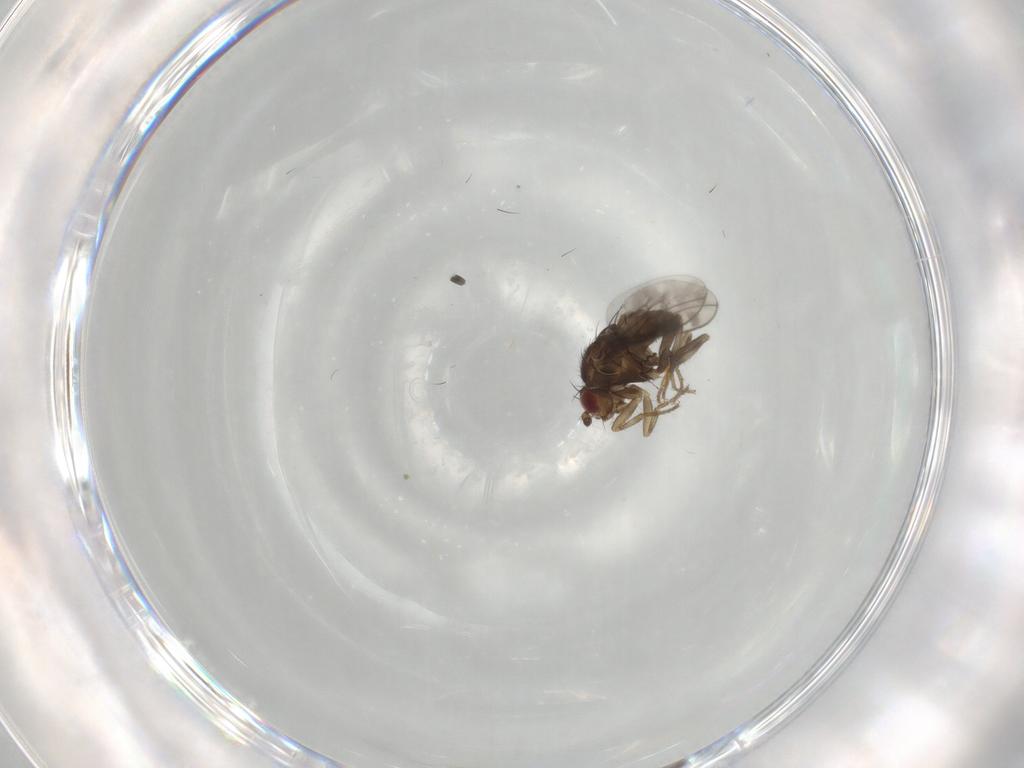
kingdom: Animalia
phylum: Arthropoda
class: Insecta
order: Diptera
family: Sphaeroceridae
